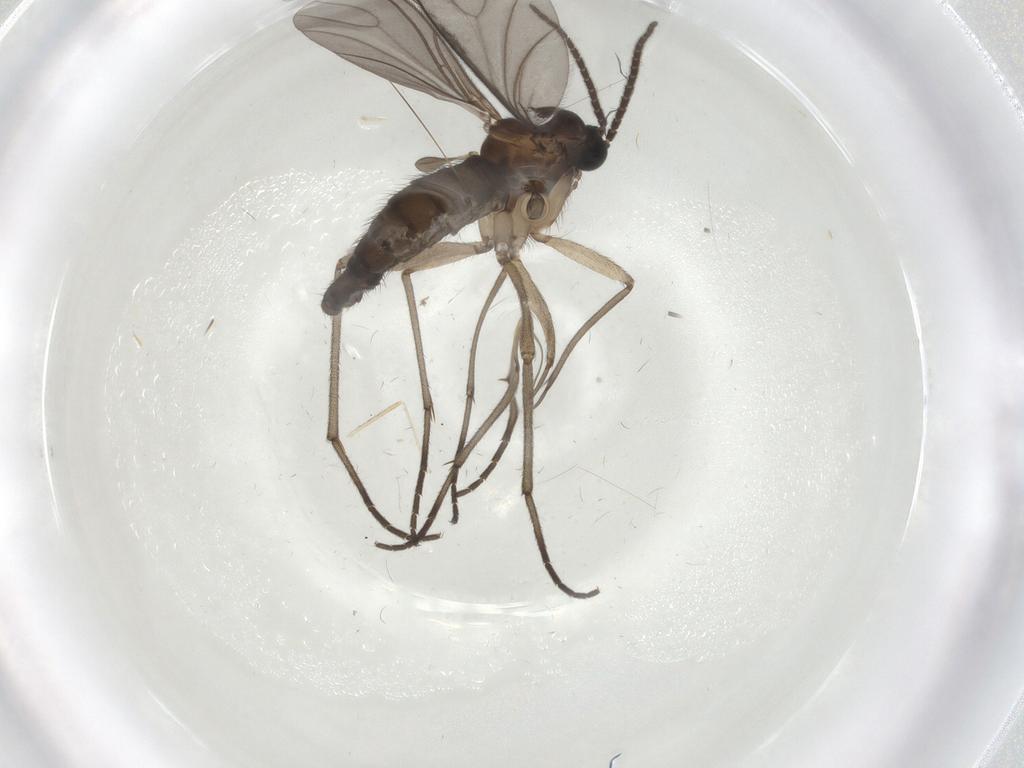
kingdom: Animalia
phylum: Arthropoda
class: Insecta
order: Diptera
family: Sciaridae
